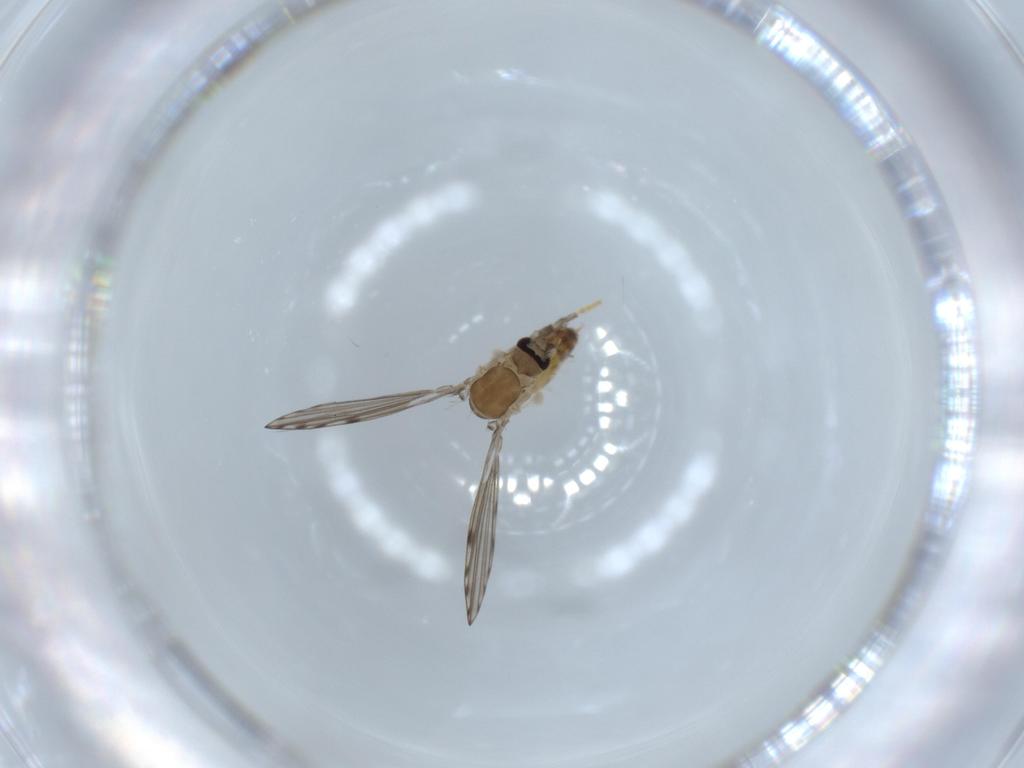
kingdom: Animalia
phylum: Arthropoda
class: Insecta
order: Diptera
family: Psychodidae
